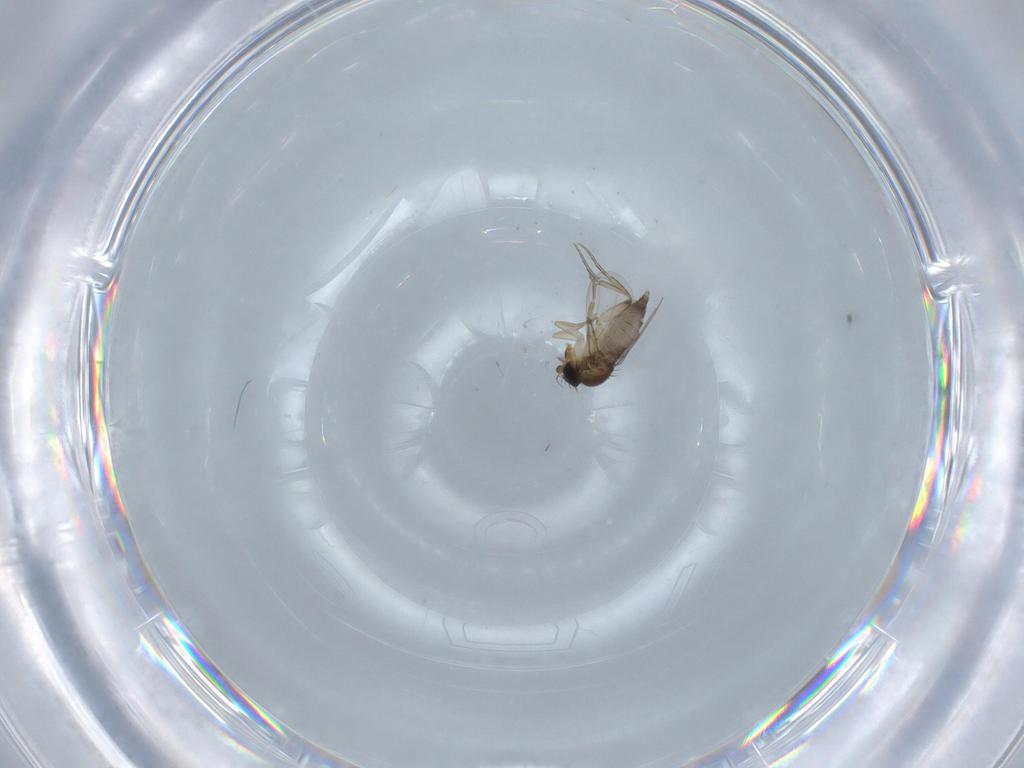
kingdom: Animalia
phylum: Arthropoda
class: Insecta
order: Diptera
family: Cecidomyiidae
